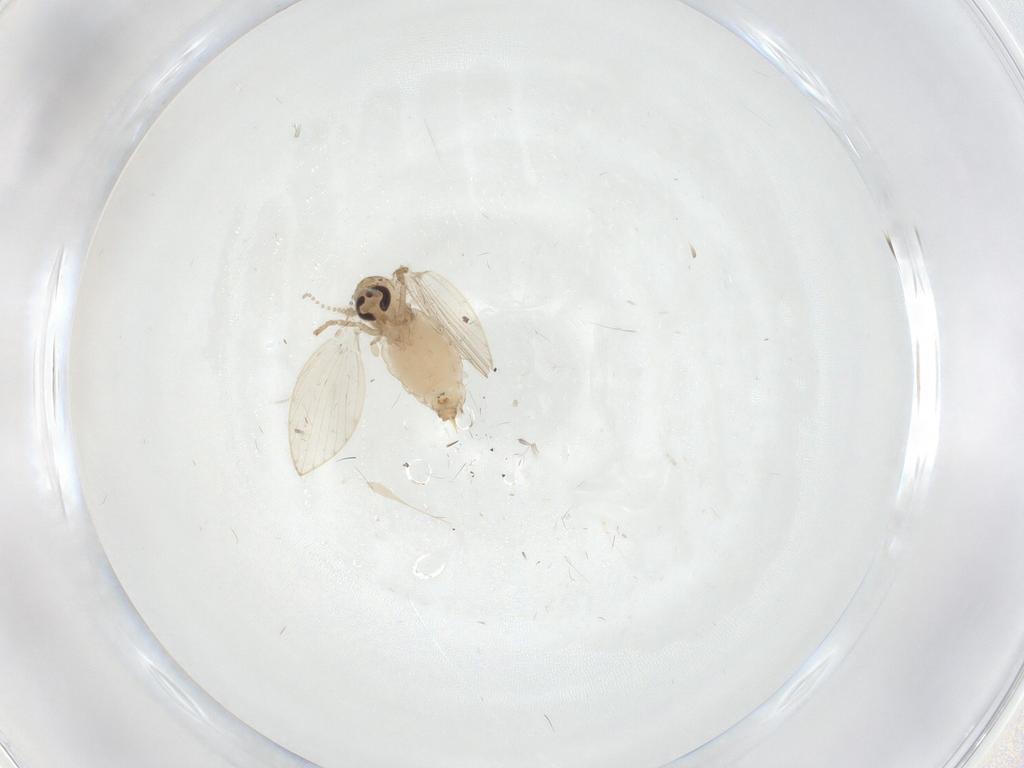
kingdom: Animalia
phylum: Arthropoda
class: Insecta
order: Diptera
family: Psychodidae
